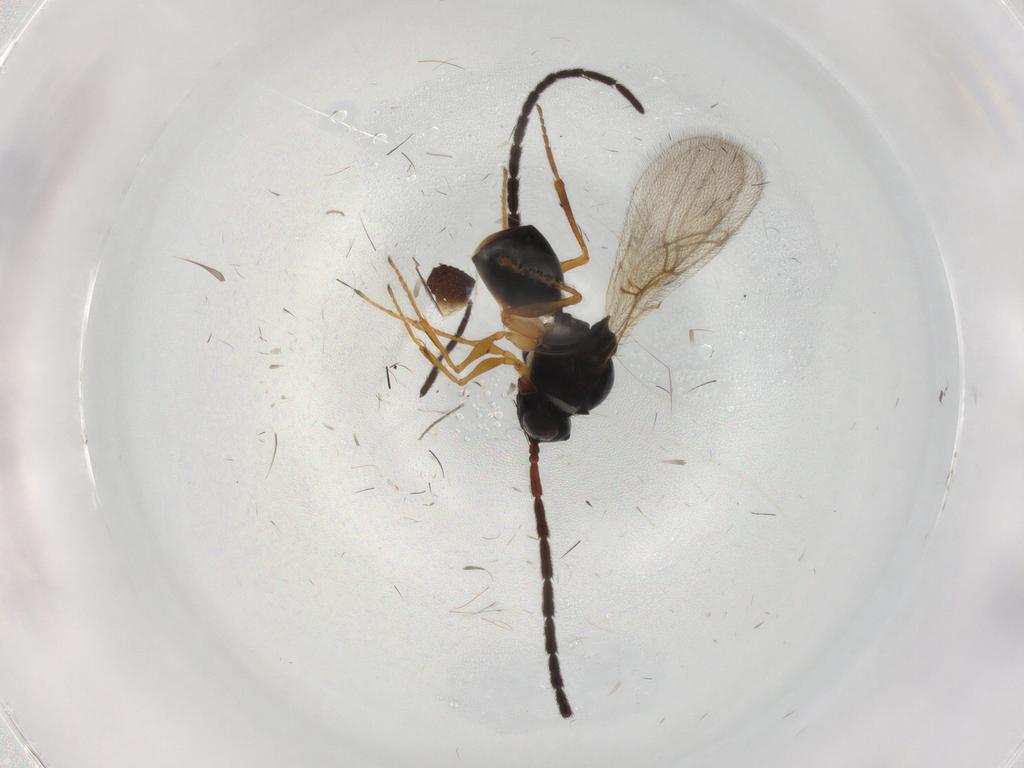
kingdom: Animalia
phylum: Arthropoda
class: Insecta
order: Hymenoptera
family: Figitidae
